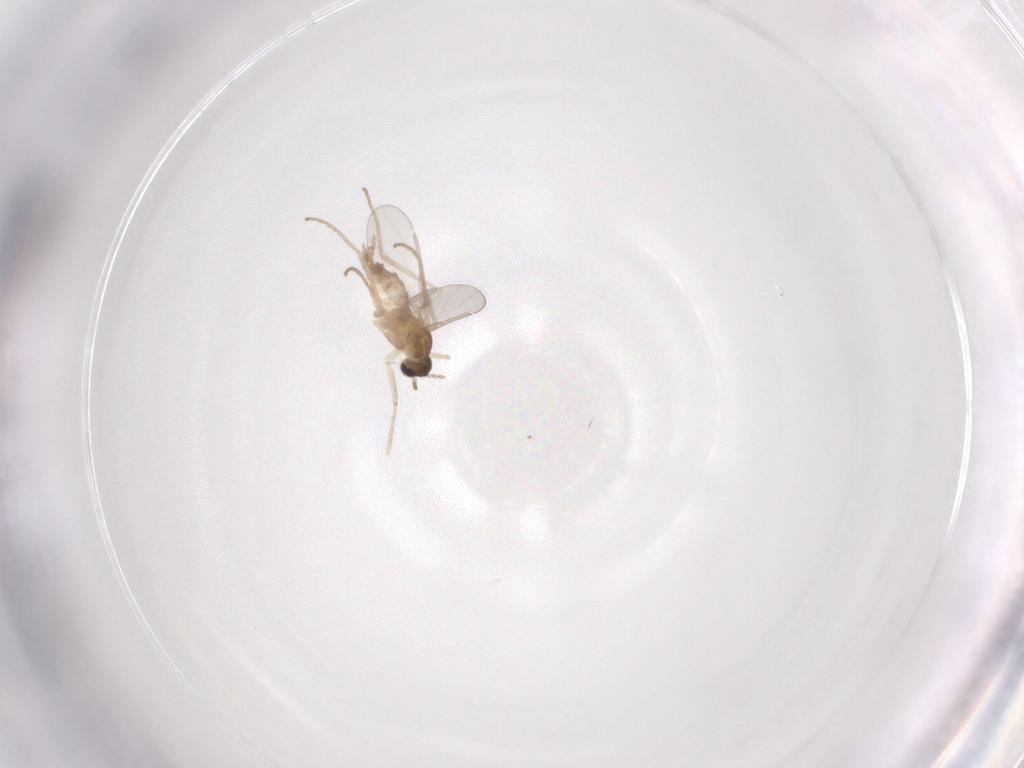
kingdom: Animalia
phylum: Arthropoda
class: Insecta
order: Diptera
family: Cecidomyiidae
